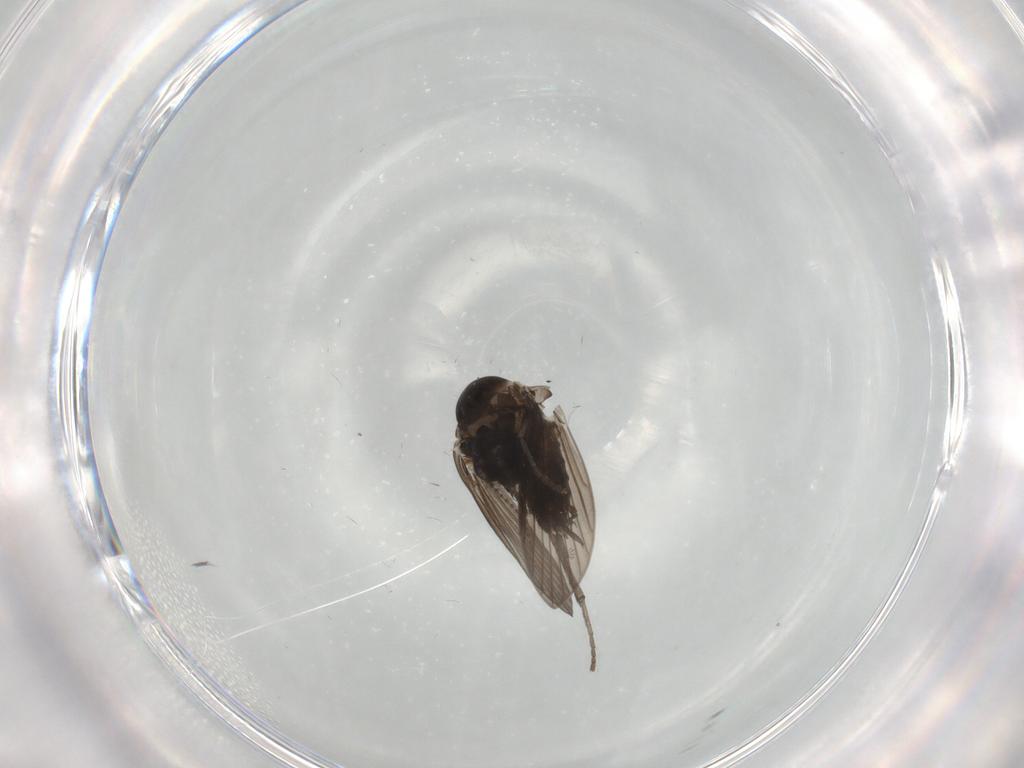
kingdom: Animalia
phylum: Arthropoda
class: Insecta
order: Diptera
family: Psychodidae
